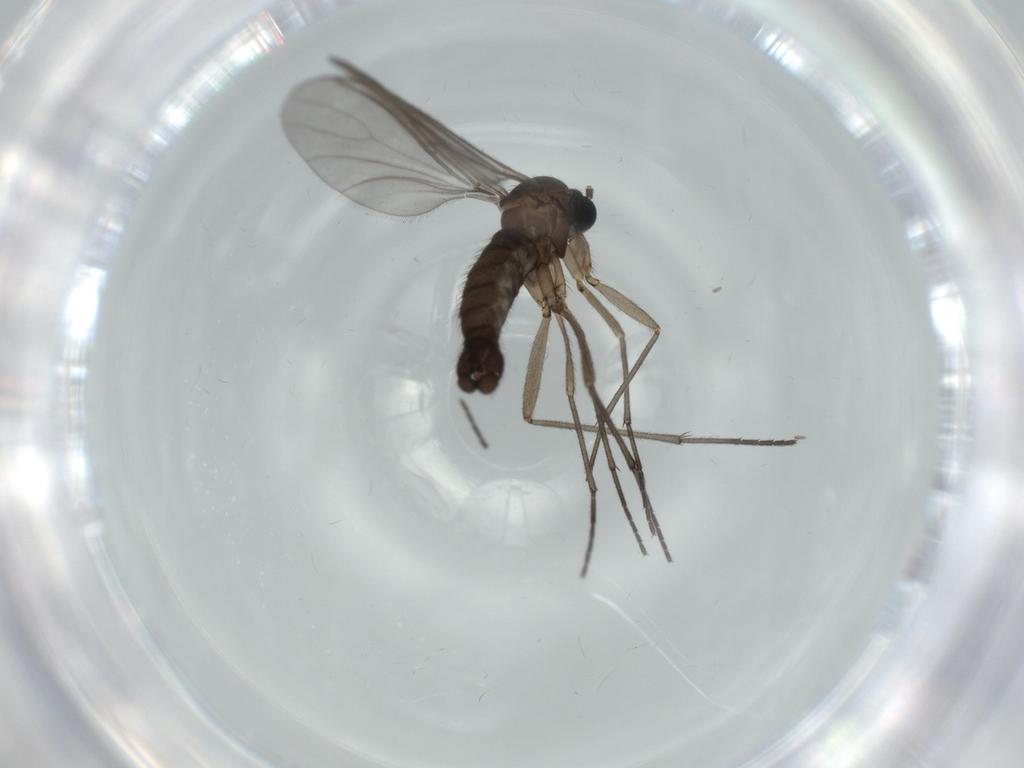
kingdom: Animalia
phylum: Arthropoda
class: Insecta
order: Diptera
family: Sciaridae
